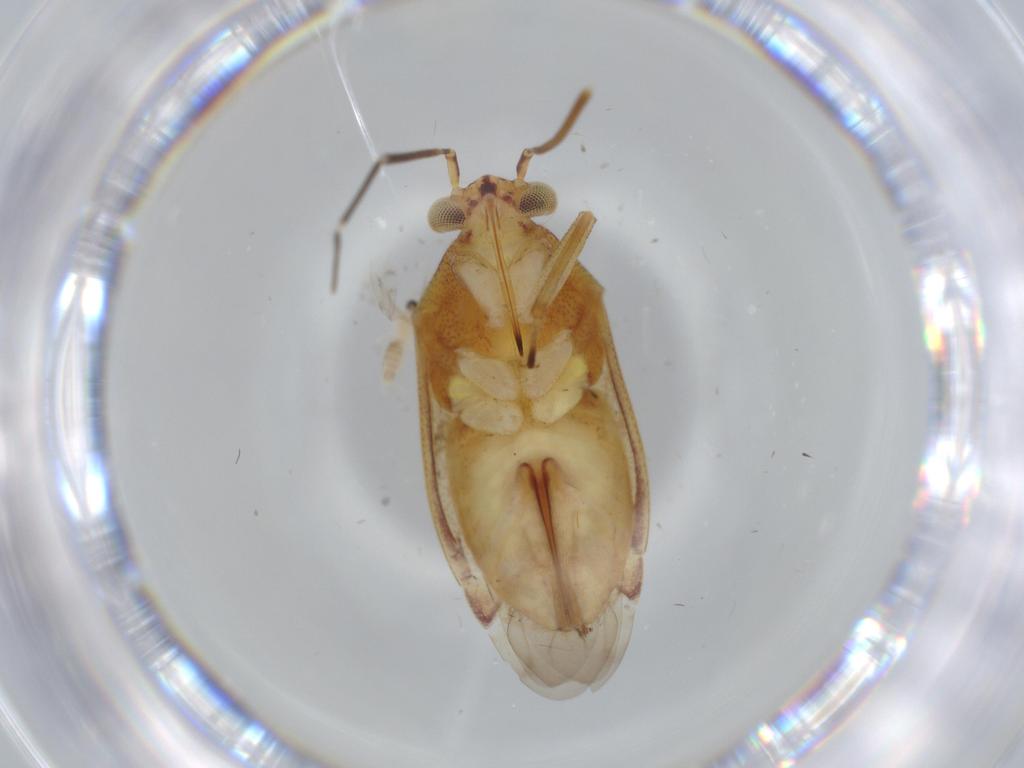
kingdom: Animalia
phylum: Arthropoda
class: Insecta
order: Hemiptera
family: Miridae
